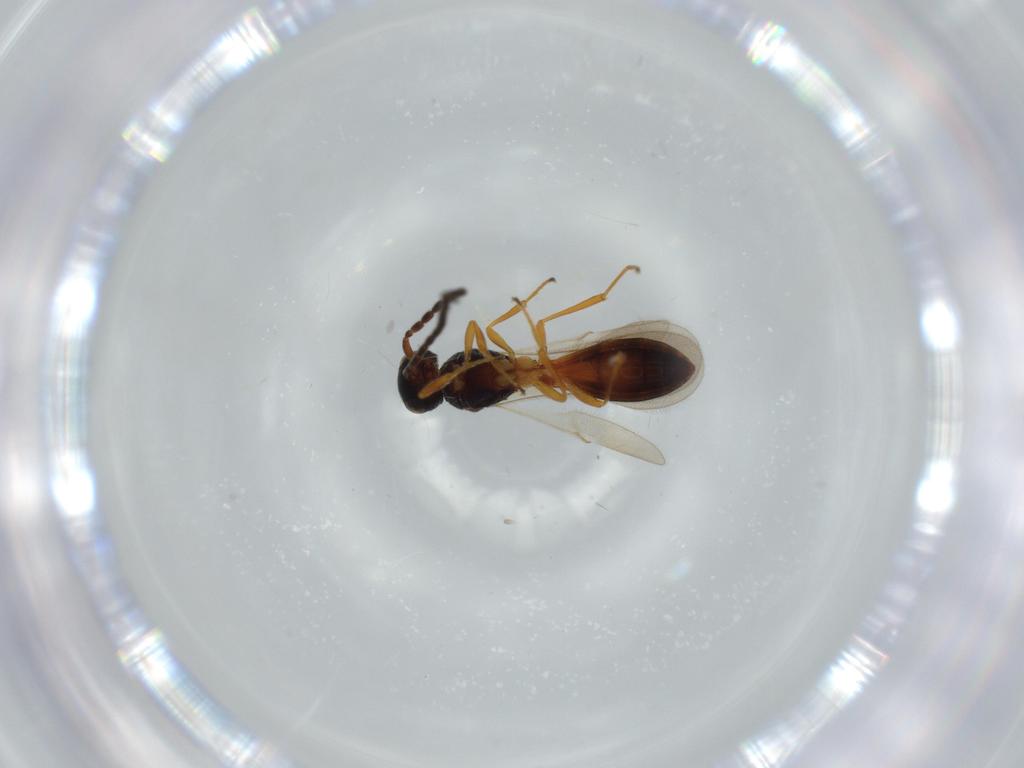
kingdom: Animalia
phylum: Arthropoda
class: Insecta
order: Hymenoptera
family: Scelionidae
